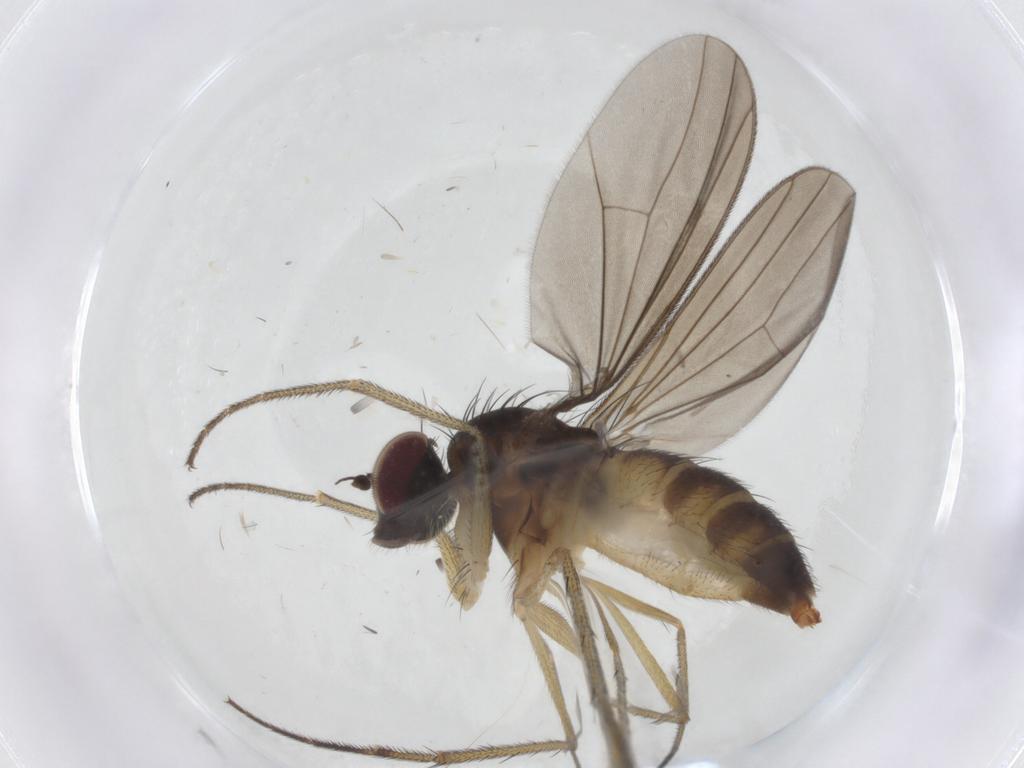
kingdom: Animalia
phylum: Arthropoda
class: Insecta
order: Diptera
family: Dolichopodidae
